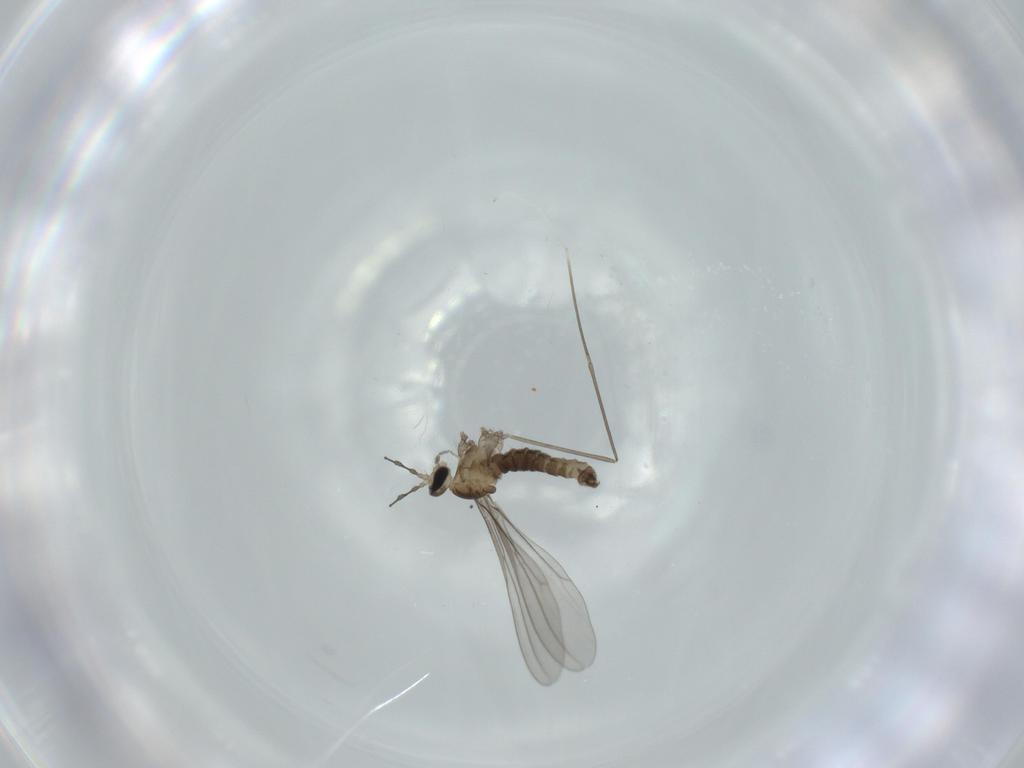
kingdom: Animalia
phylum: Arthropoda
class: Insecta
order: Diptera
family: Cecidomyiidae
